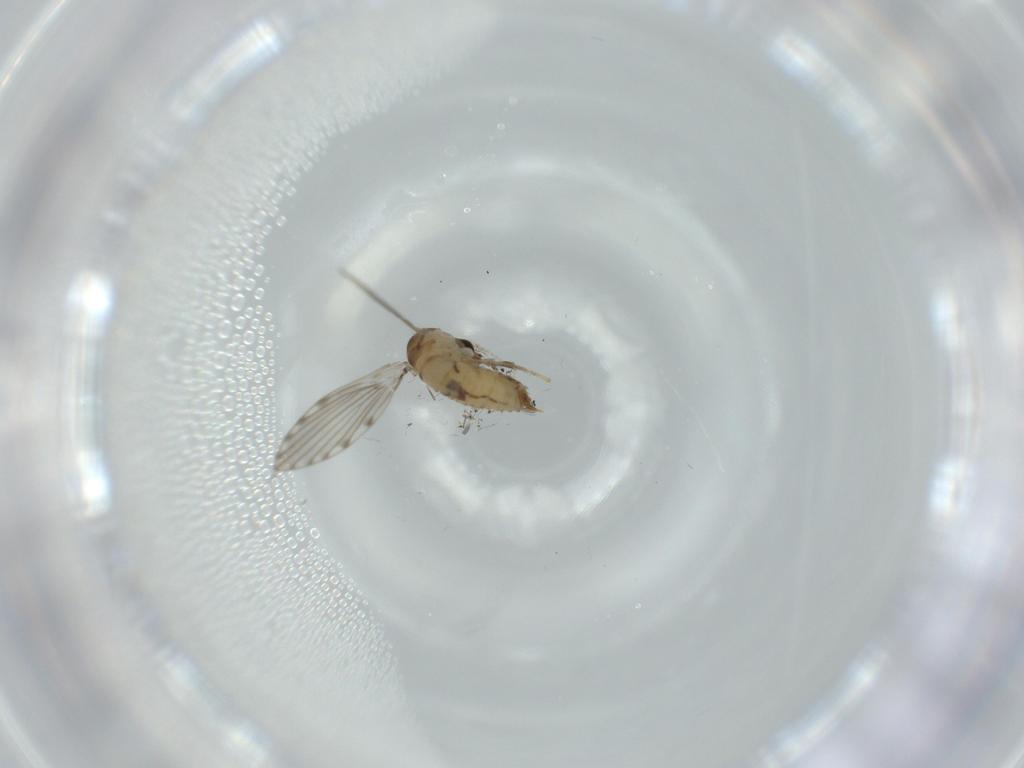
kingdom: Animalia
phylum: Arthropoda
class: Insecta
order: Diptera
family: Psychodidae
